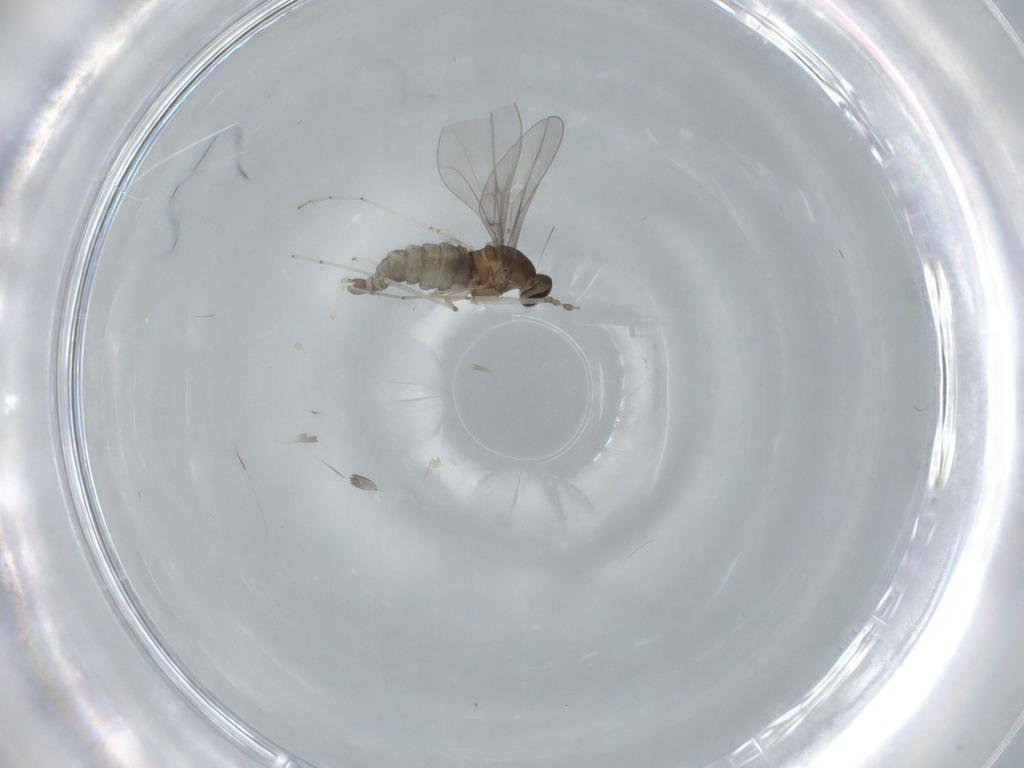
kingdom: Animalia
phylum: Arthropoda
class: Insecta
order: Diptera
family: Cecidomyiidae
